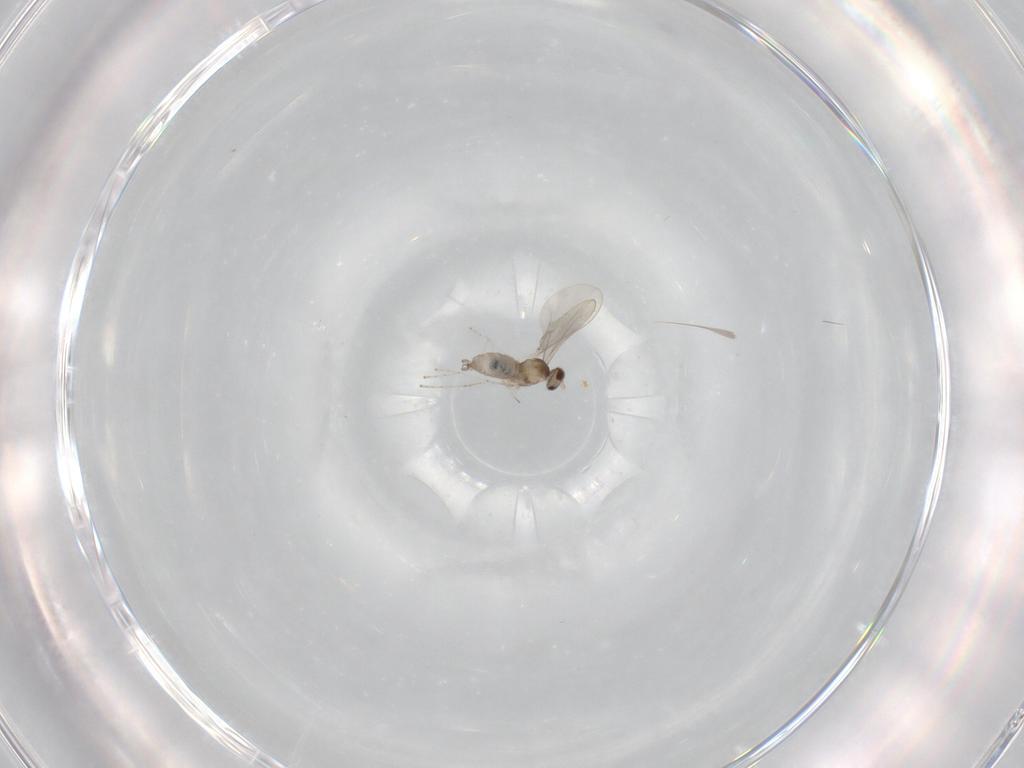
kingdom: Animalia
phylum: Arthropoda
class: Insecta
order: Diptera
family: Cecidomyiidae
